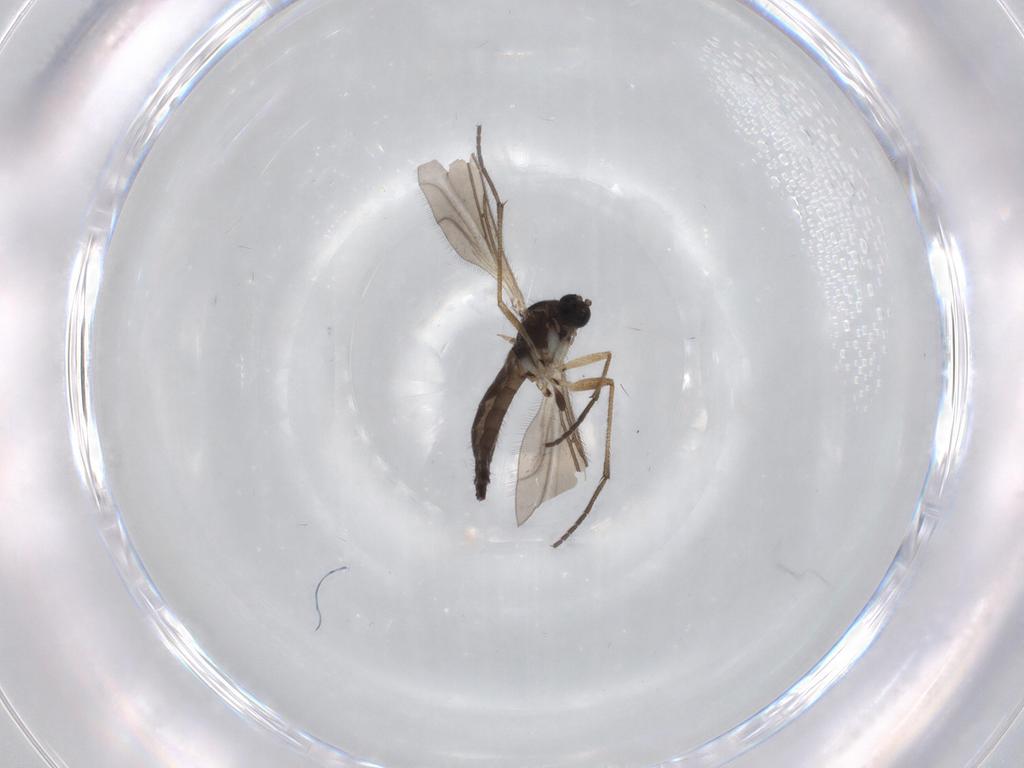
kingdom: Animalia
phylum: Arthropoda
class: Insecta
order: Diptera
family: Sciaridae
